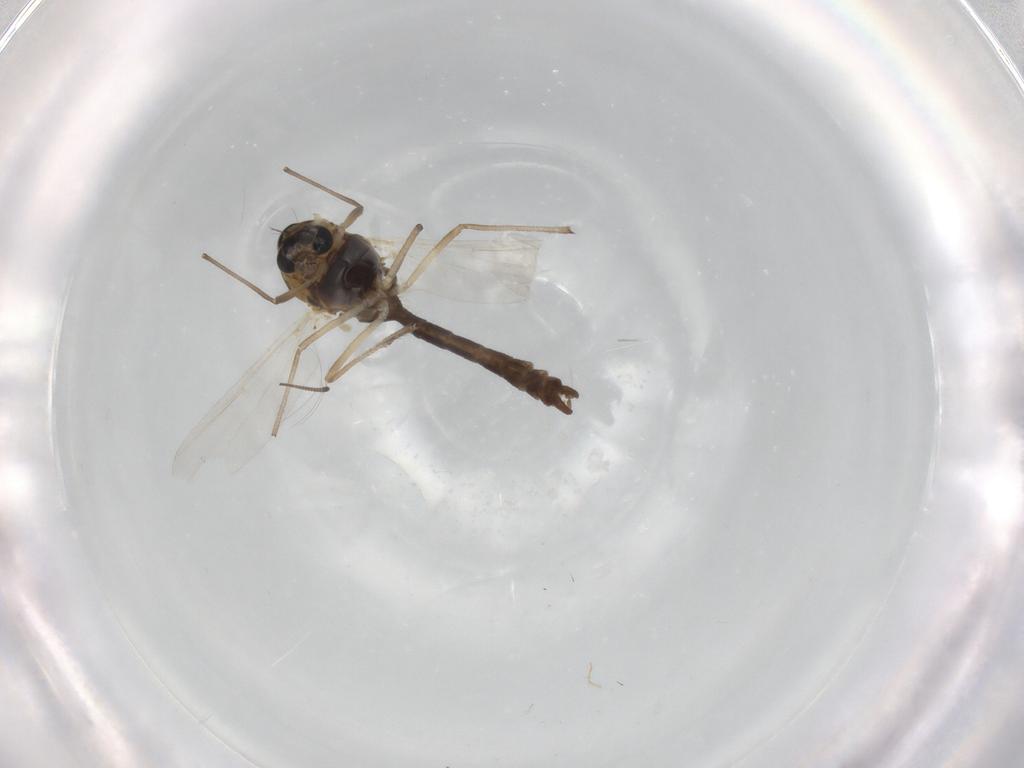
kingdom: Animalia
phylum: Arthropoda
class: Insecta
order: Diptera
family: Chironomidae
